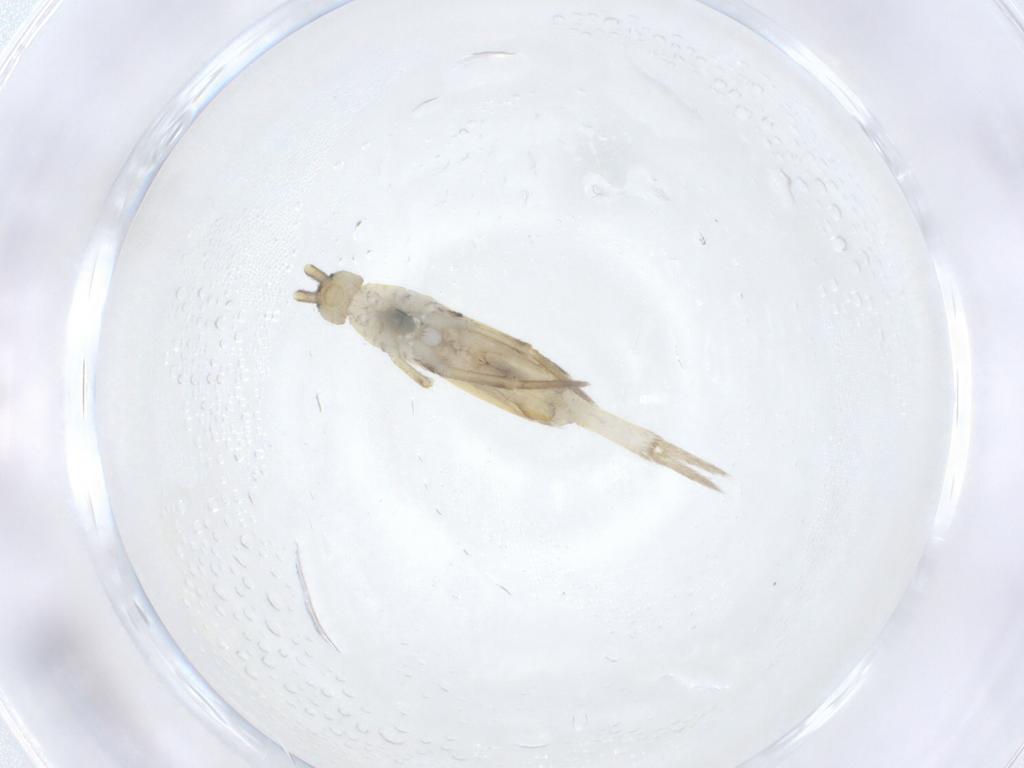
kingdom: Animalia
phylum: Arthropoda
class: Collembola
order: Entomobryomorpha
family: Entomobryidae
